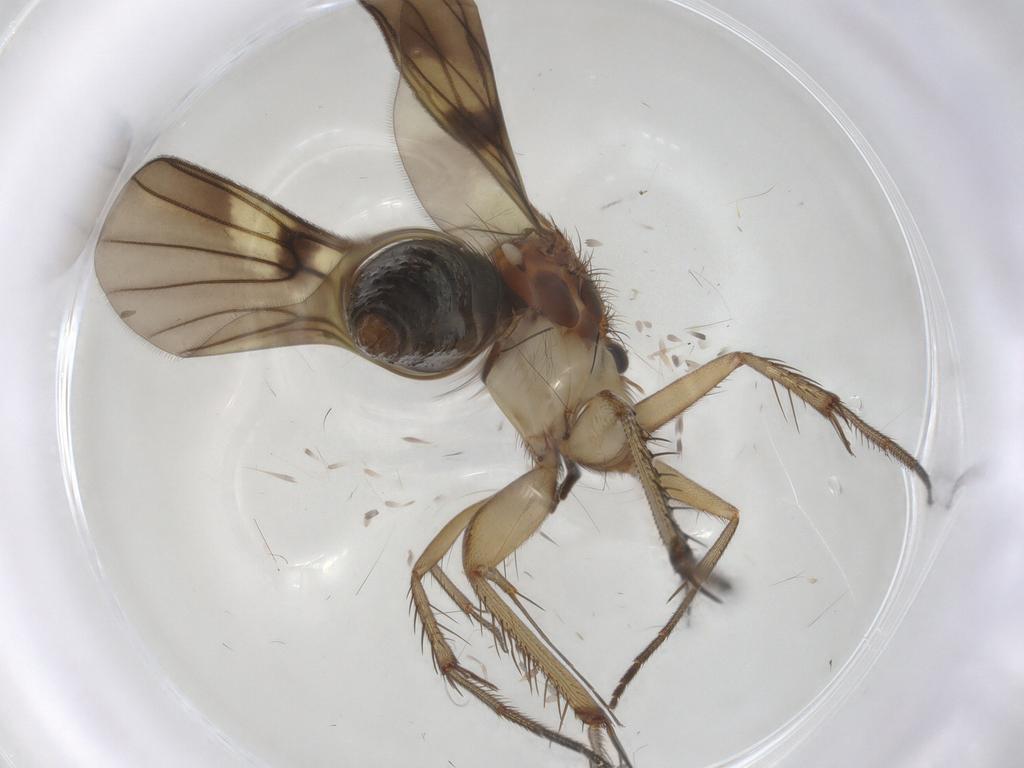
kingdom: Animalia
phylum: Arthropoda
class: Insecta
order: Diptera
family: Mycetophilidae
